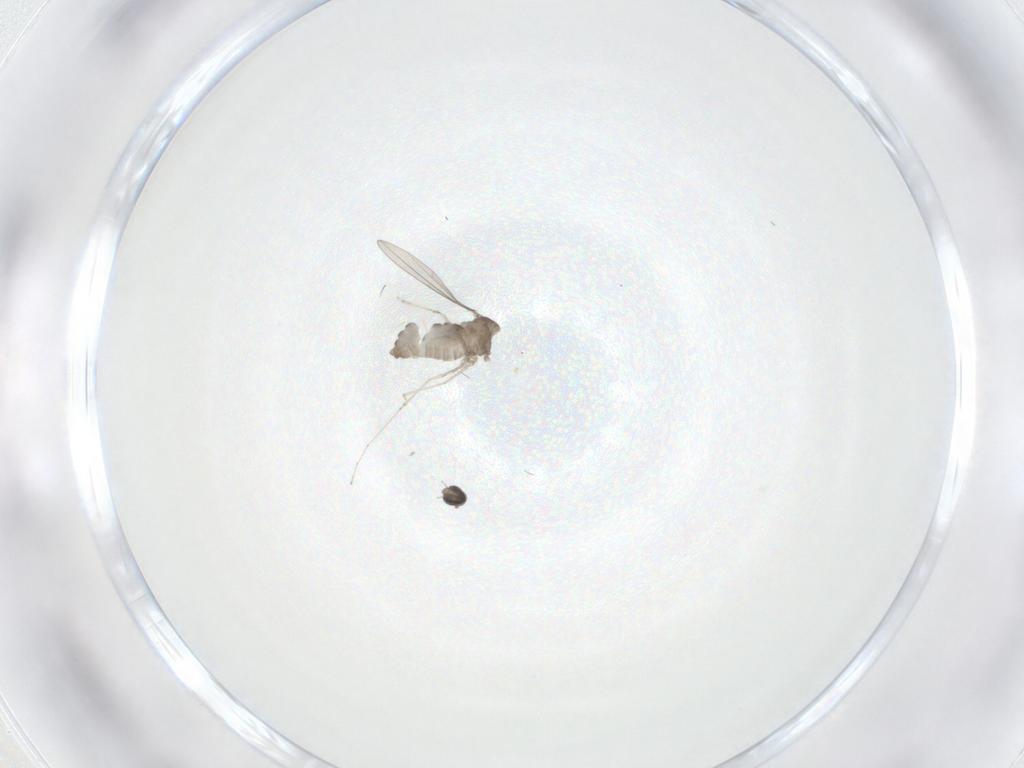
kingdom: Animalia
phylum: Arthropoda
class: Insecta
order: Diptera
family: Cecidomyiidae
